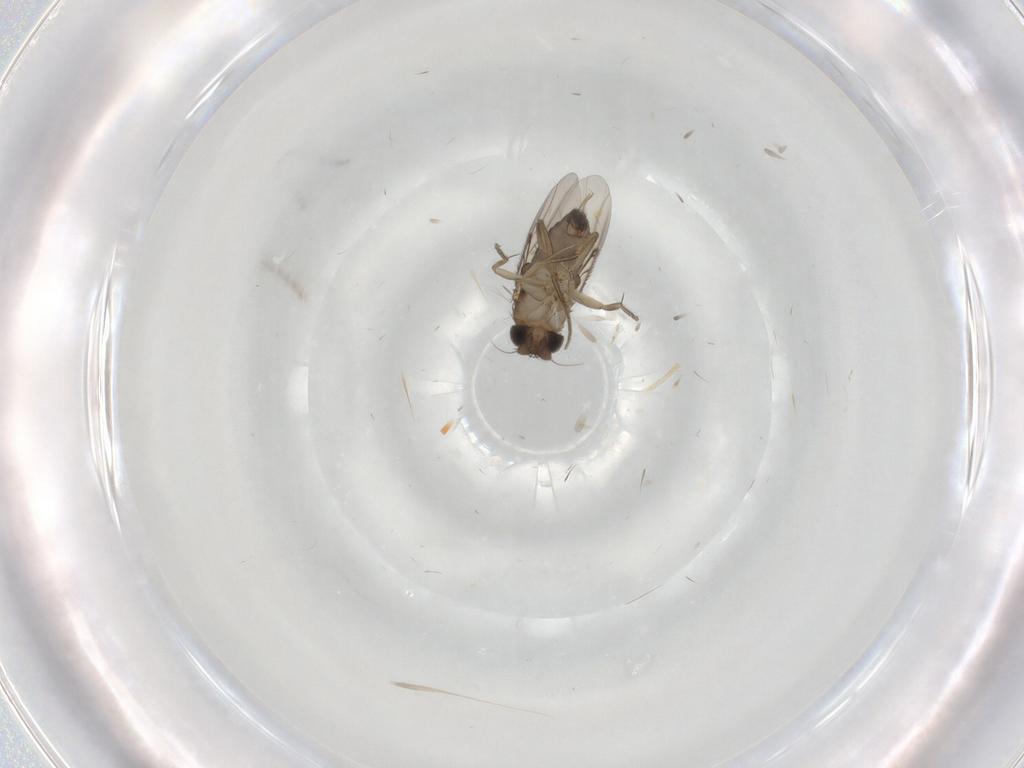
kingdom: Animalia
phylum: Arthropoda
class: Insecta
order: Diptera
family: Phoridae
